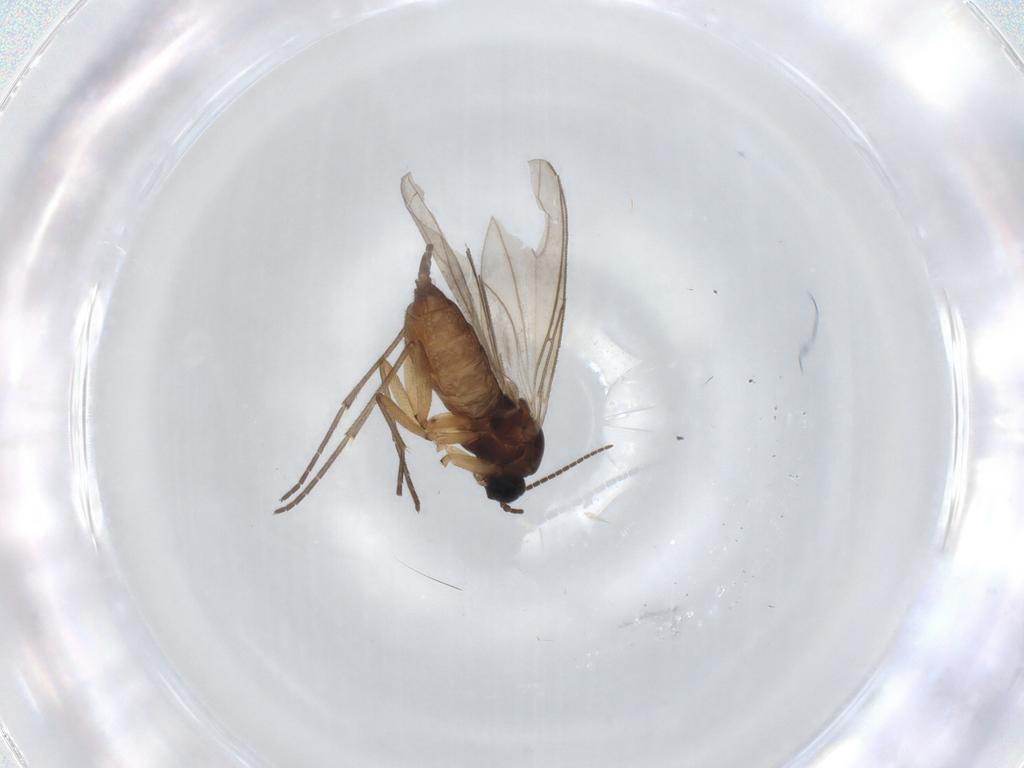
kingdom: Animalia
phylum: Arthropoda
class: Insecta
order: Diptera
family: Sciaridae
